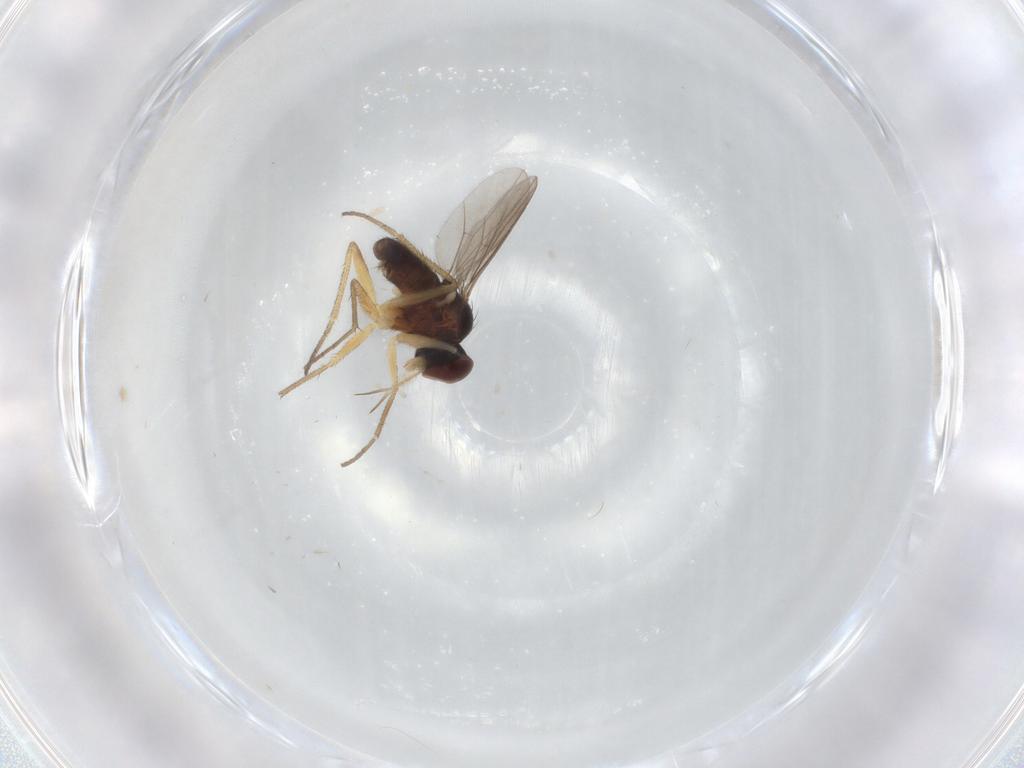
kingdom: Animalia
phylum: Arthropoda
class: Insecta
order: Diptera
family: Dolichopodidae
